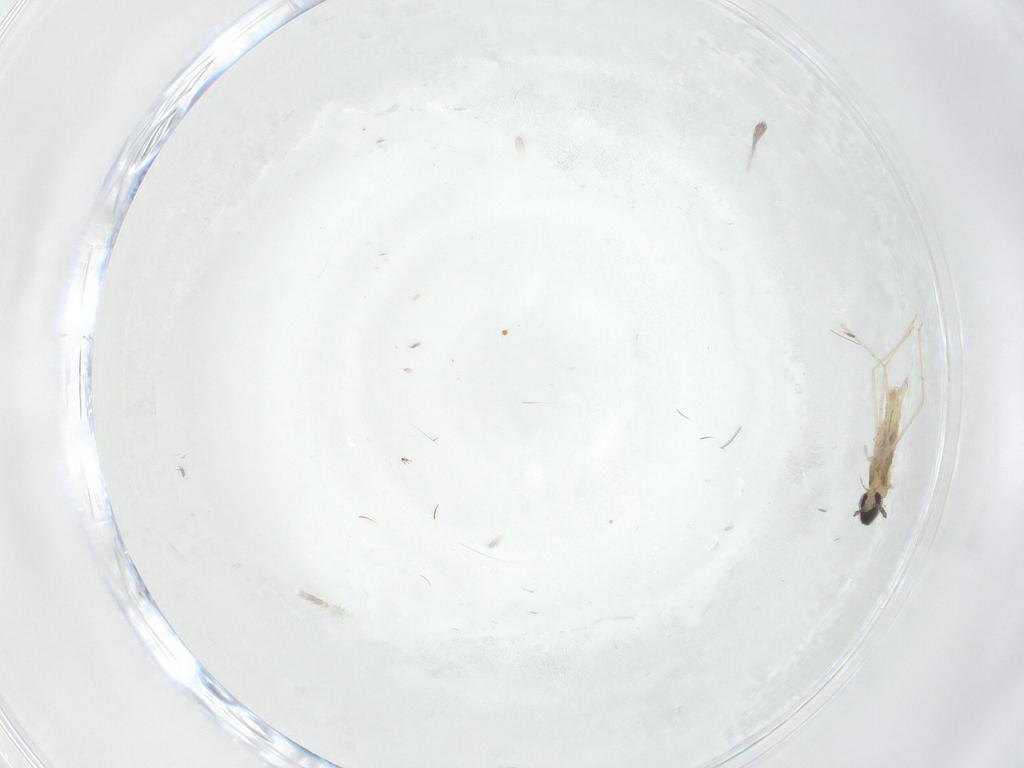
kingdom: Animalia
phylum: Arthropoda
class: Insecta
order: Diptera
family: Cecidomyiidae
